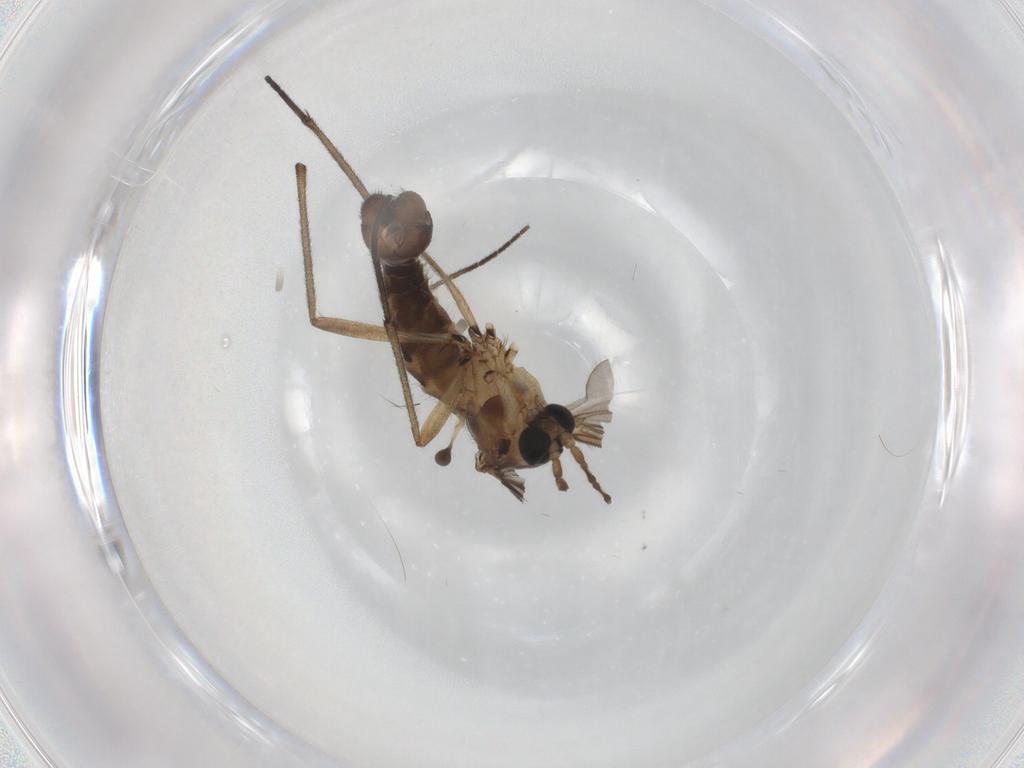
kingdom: Animalia
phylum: Arthropoda
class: Insecta
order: Diptera
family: Sciaridae
